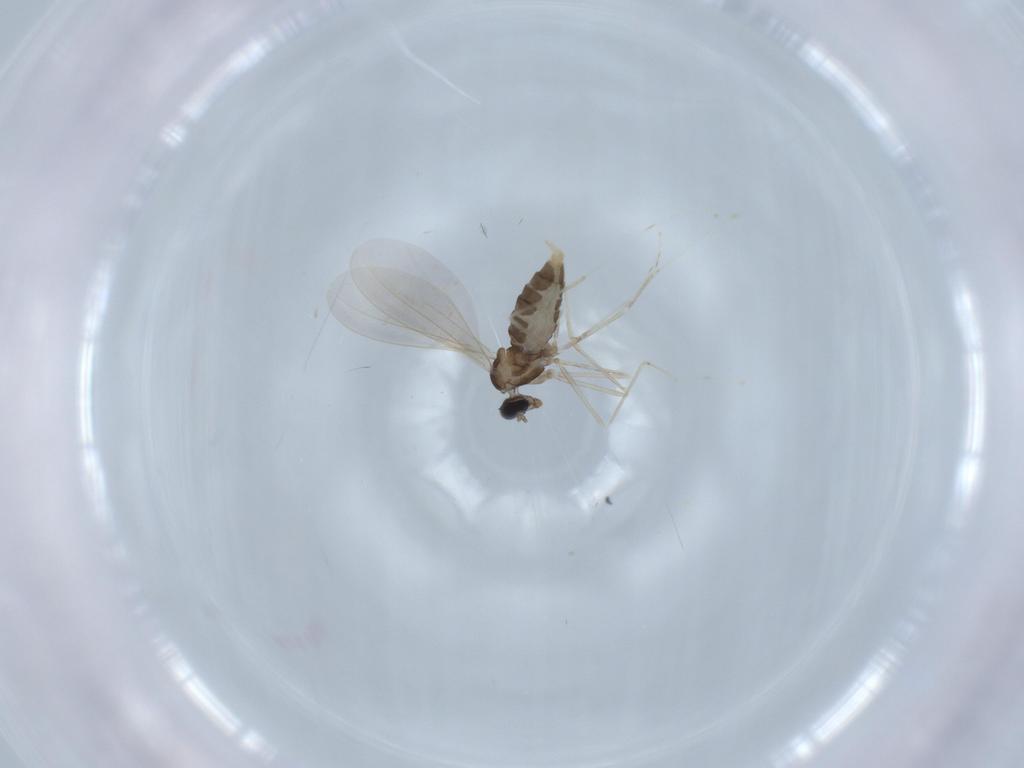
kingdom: Animalia
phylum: Arthropoda
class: Insecta
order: Diptera
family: Cecidomyiidae
